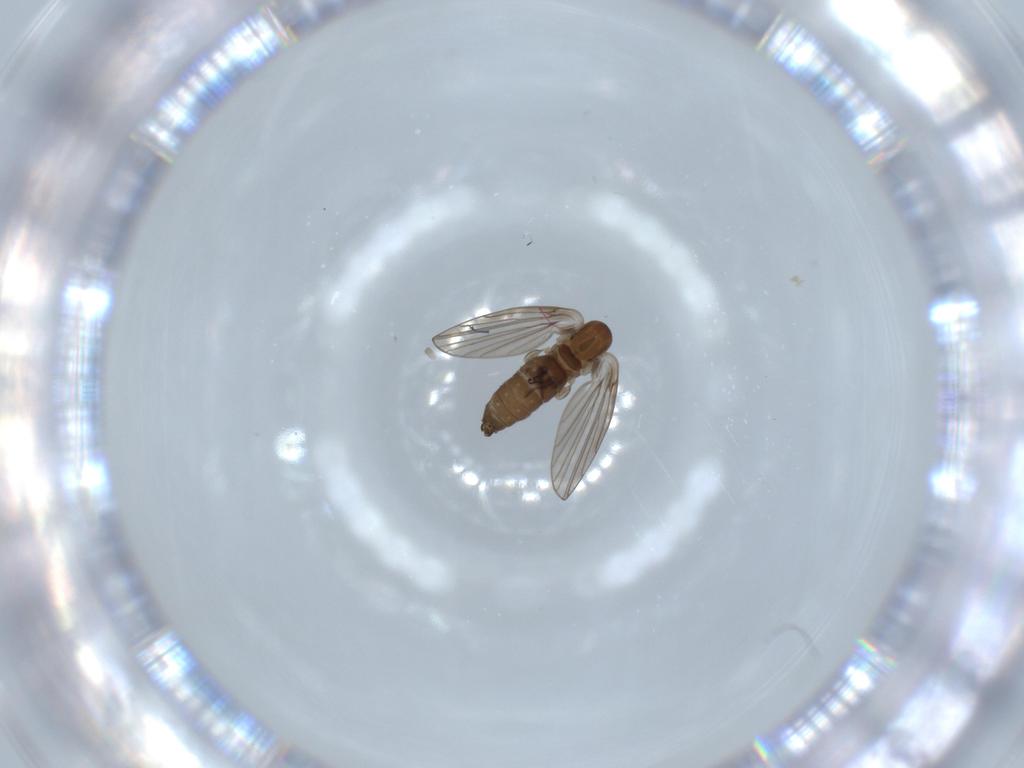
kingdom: Animalia
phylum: Arthropoda
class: Insecta
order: Diptera
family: Psychodidae
